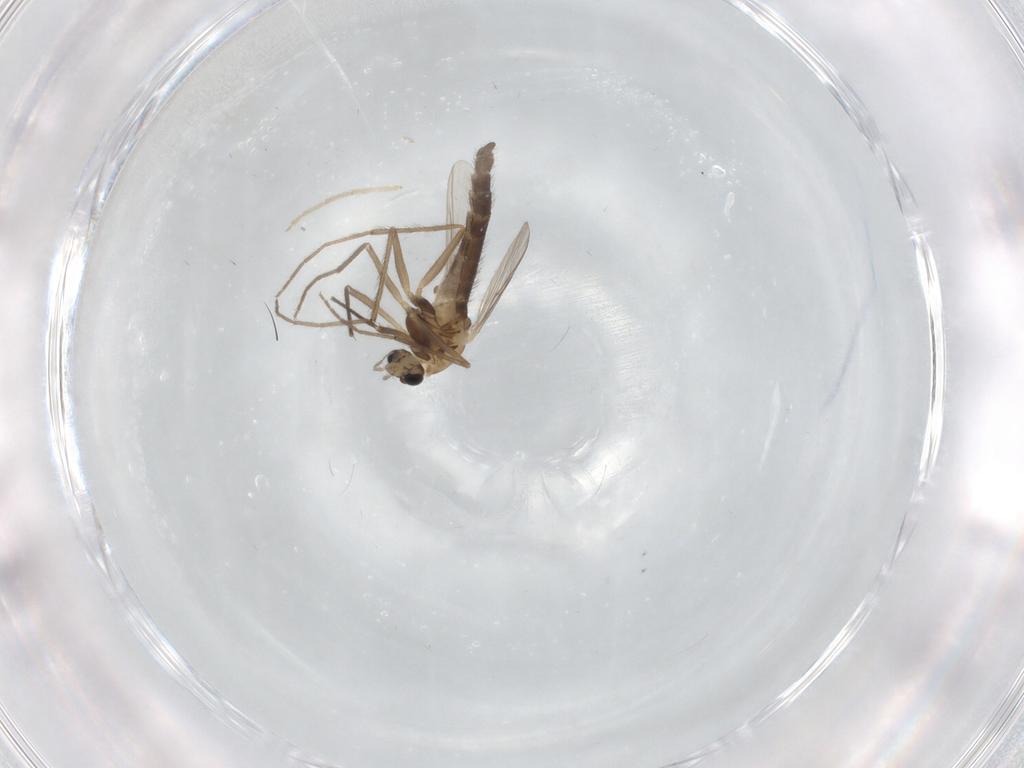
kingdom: Animalia
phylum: Arthropoda
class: Insecta
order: Diptera
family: Chironomidae
